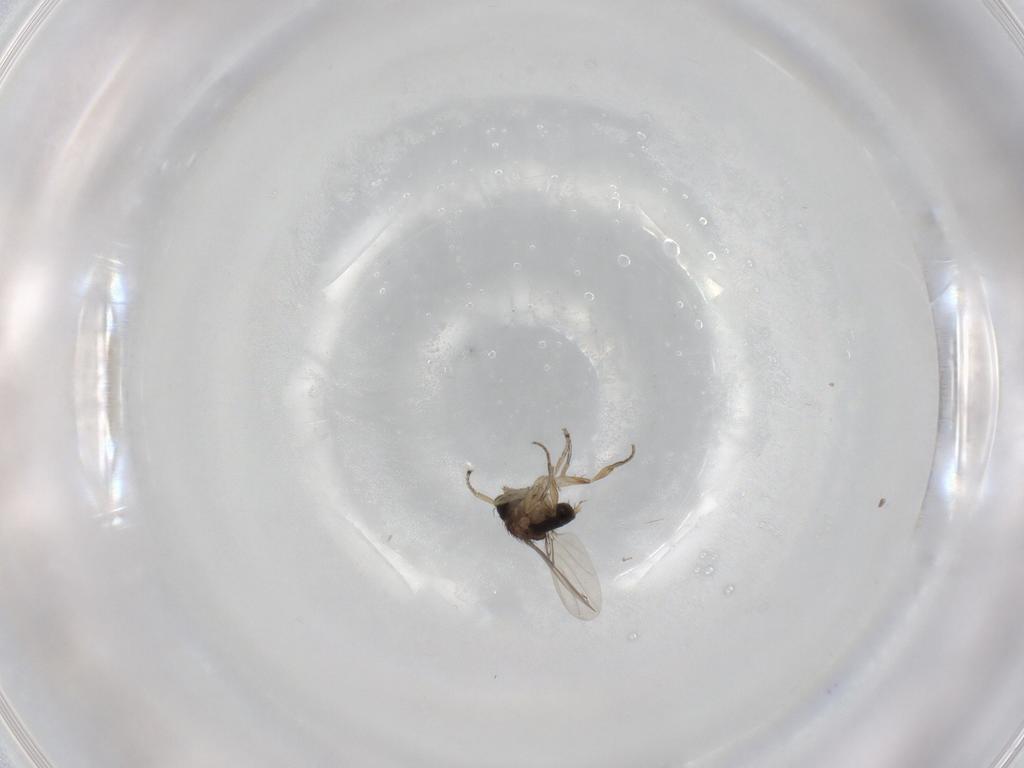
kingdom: Animalia
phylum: Arthropoda
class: Insecta
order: Diptera
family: Phoridae
